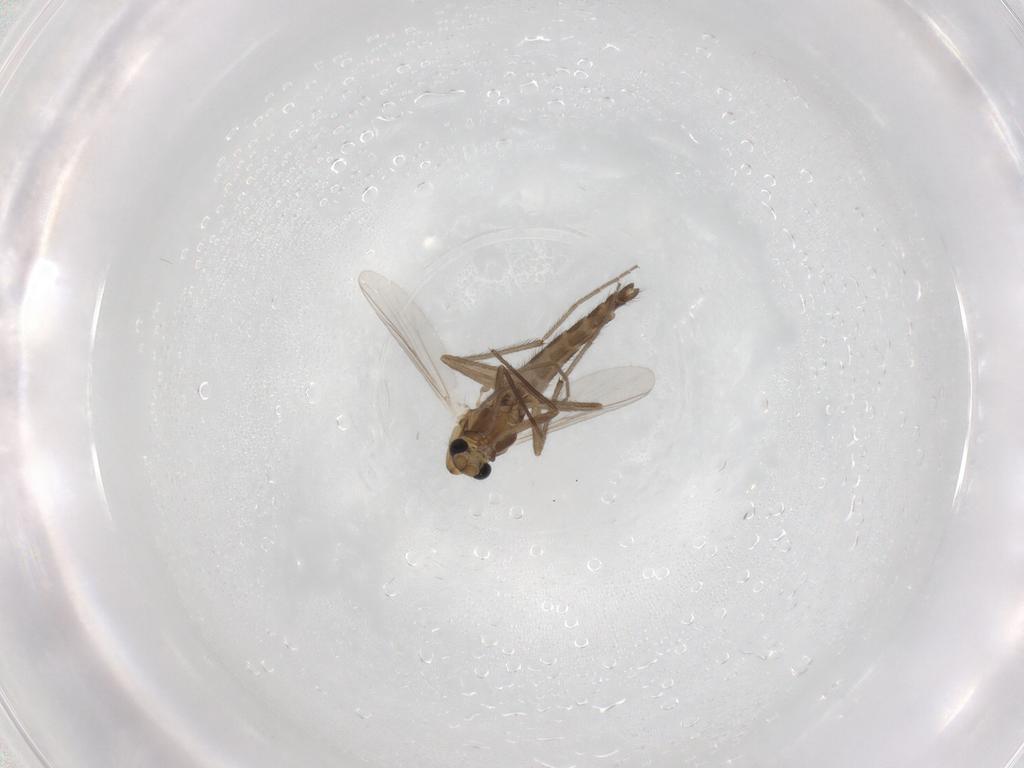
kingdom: Animalia
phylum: Arthropoda
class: Insecta
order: Diptera
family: Chironomidae
